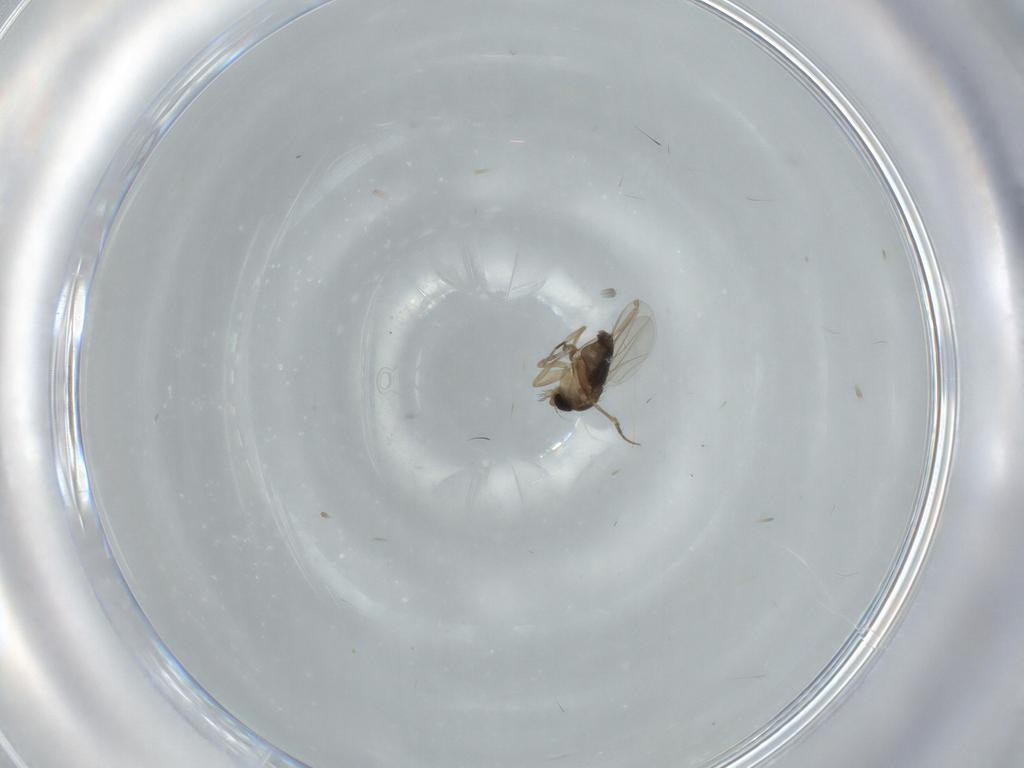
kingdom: Animalia
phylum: Arthropoda
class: Insecta
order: Diptera
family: Phoridae
